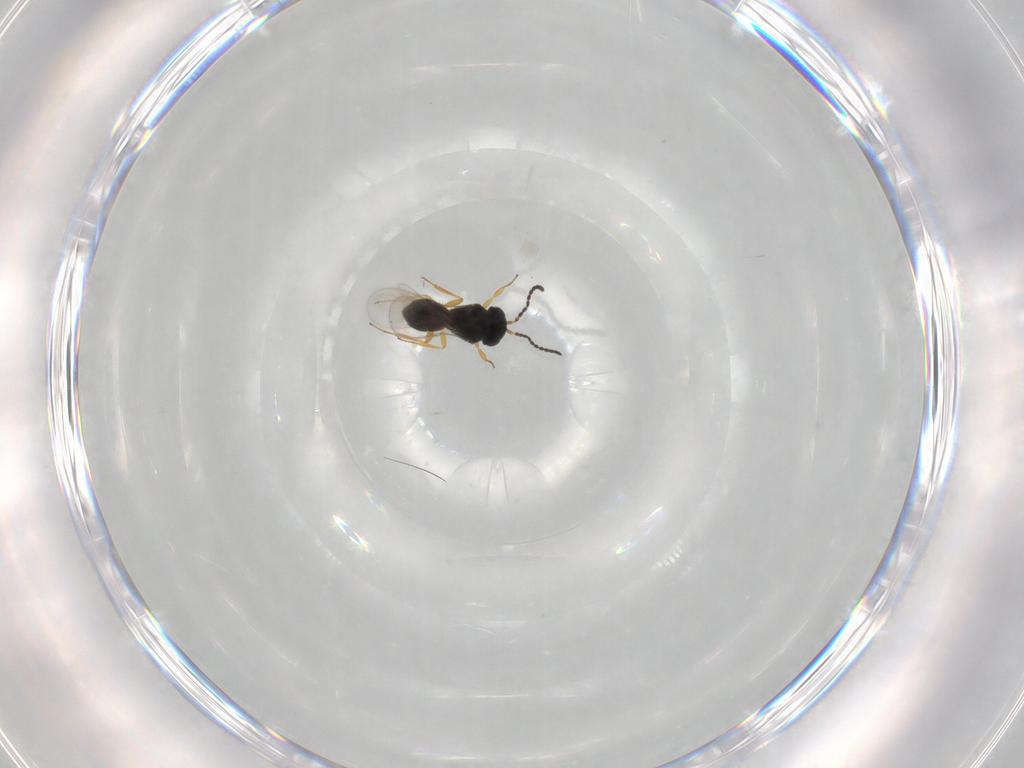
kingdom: Animalia
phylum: Arthropoda
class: Insecta
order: Hymenoptera
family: Scelionidae
